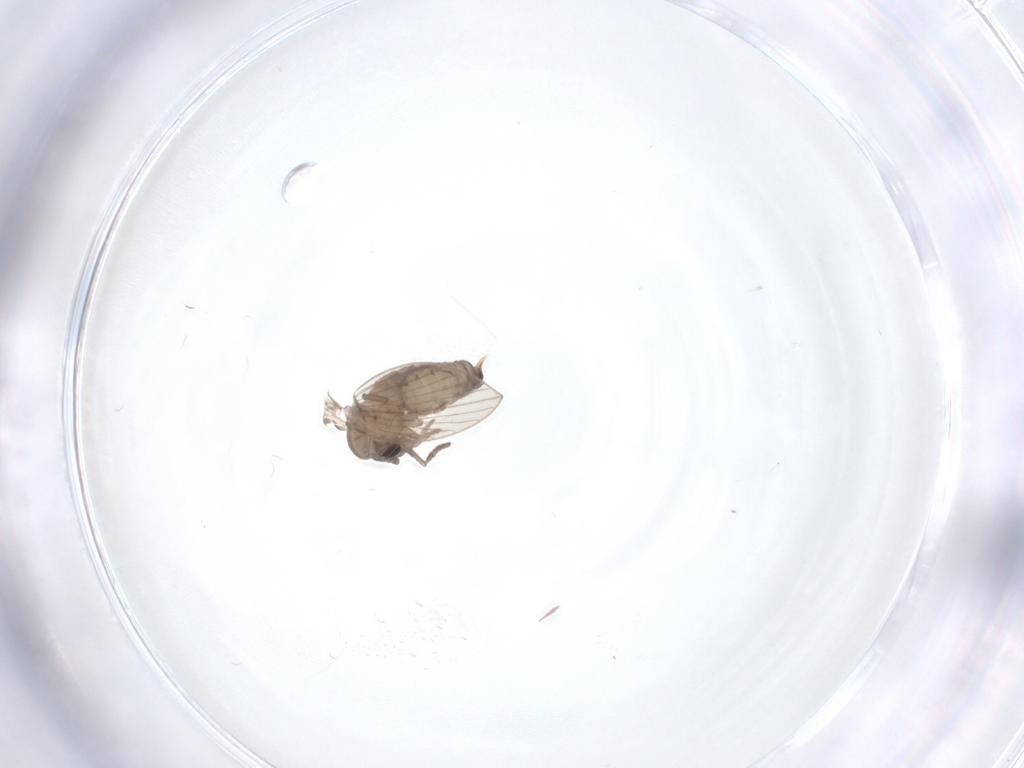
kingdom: Animalia
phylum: Arthropoda
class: Insecta
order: Diptera
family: Psychodidae
